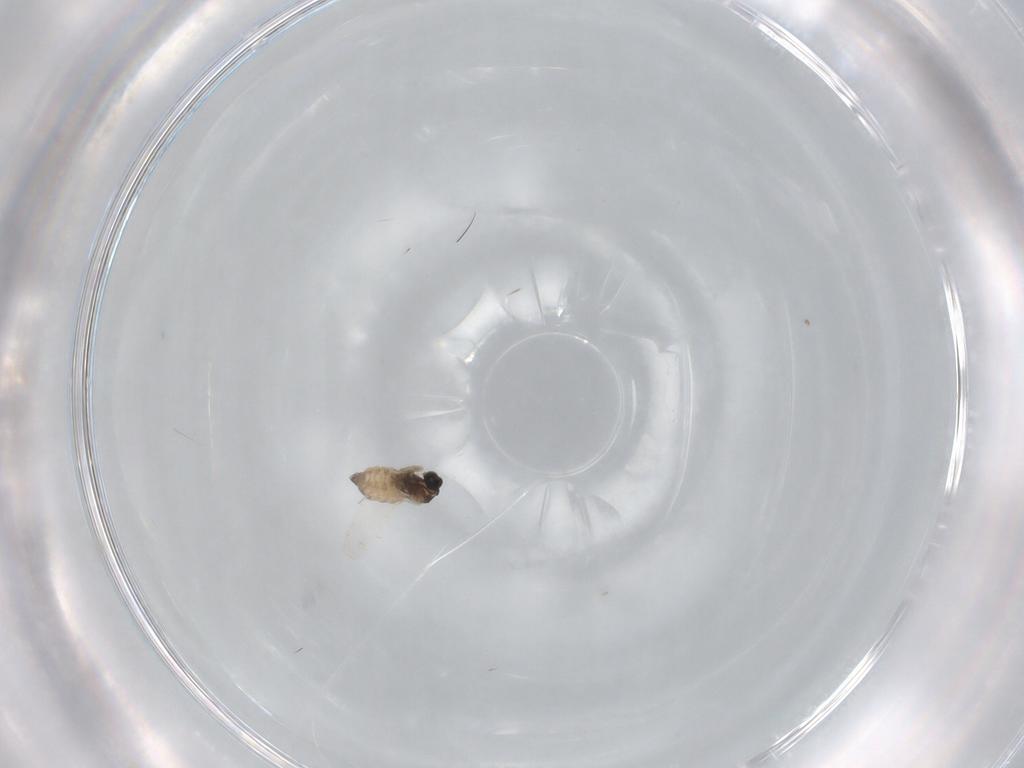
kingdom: Animalia
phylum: Arthropoda
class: Insecta
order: Diptera
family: Cecidomyiidae
